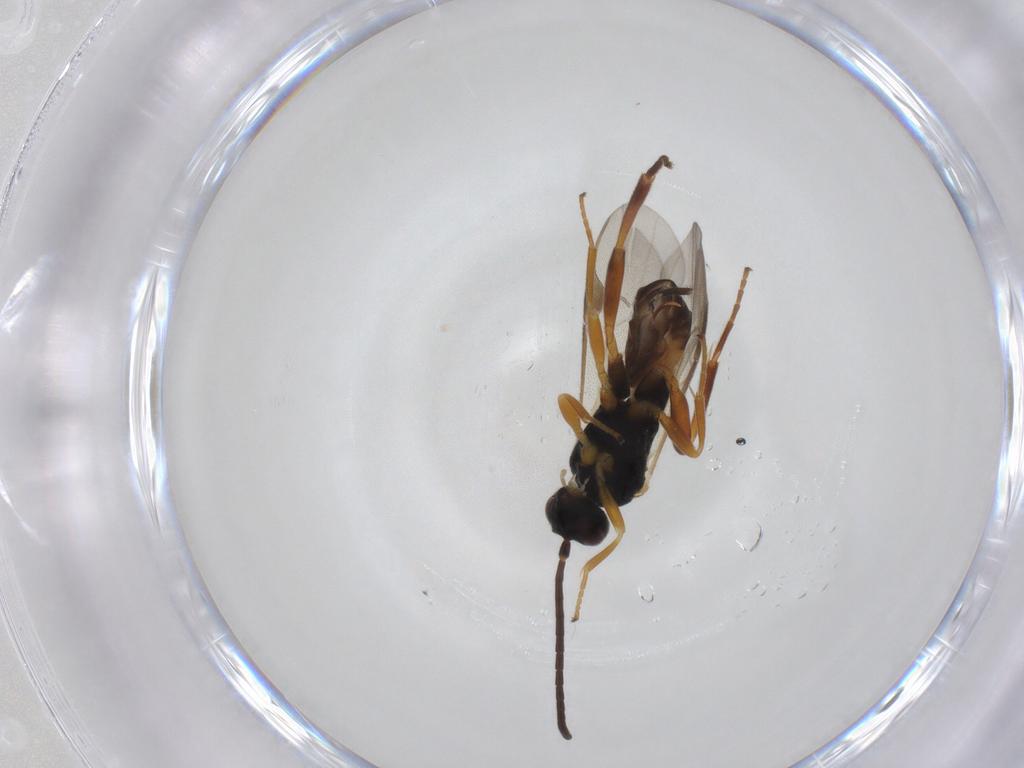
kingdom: Animalia
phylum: Arthropoda
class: Insecta
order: Hymenoptera
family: Braconidae
